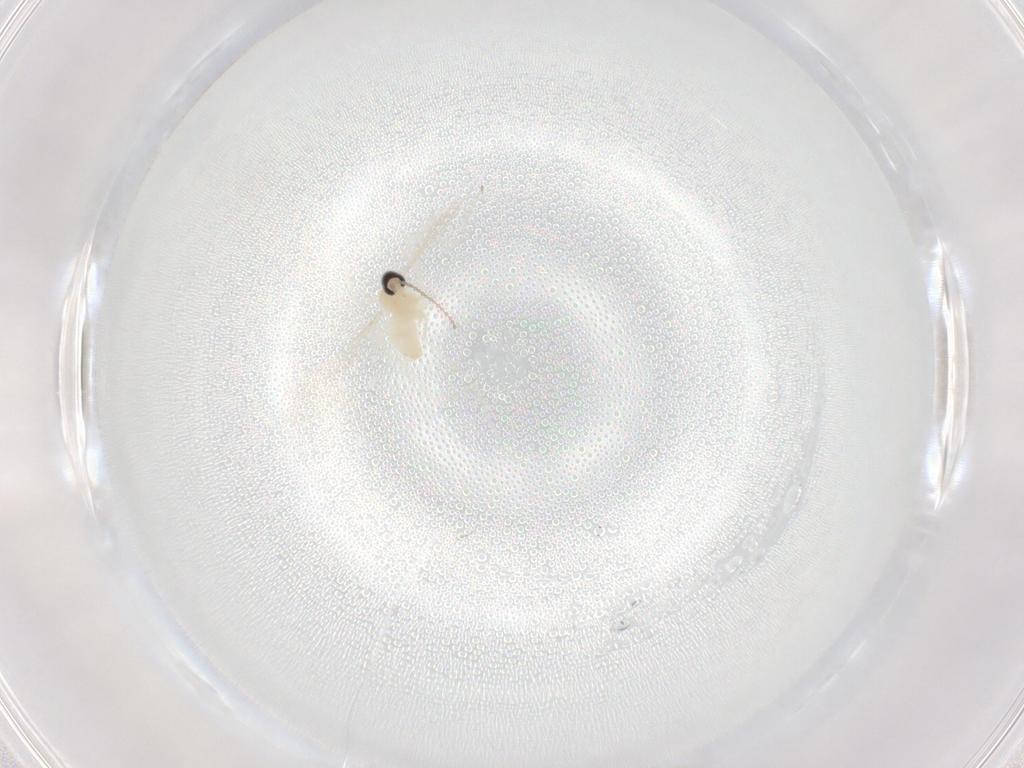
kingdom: Animalia
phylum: Arthropoda
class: Insecta
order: Diptera
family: Cecidomyiidae
